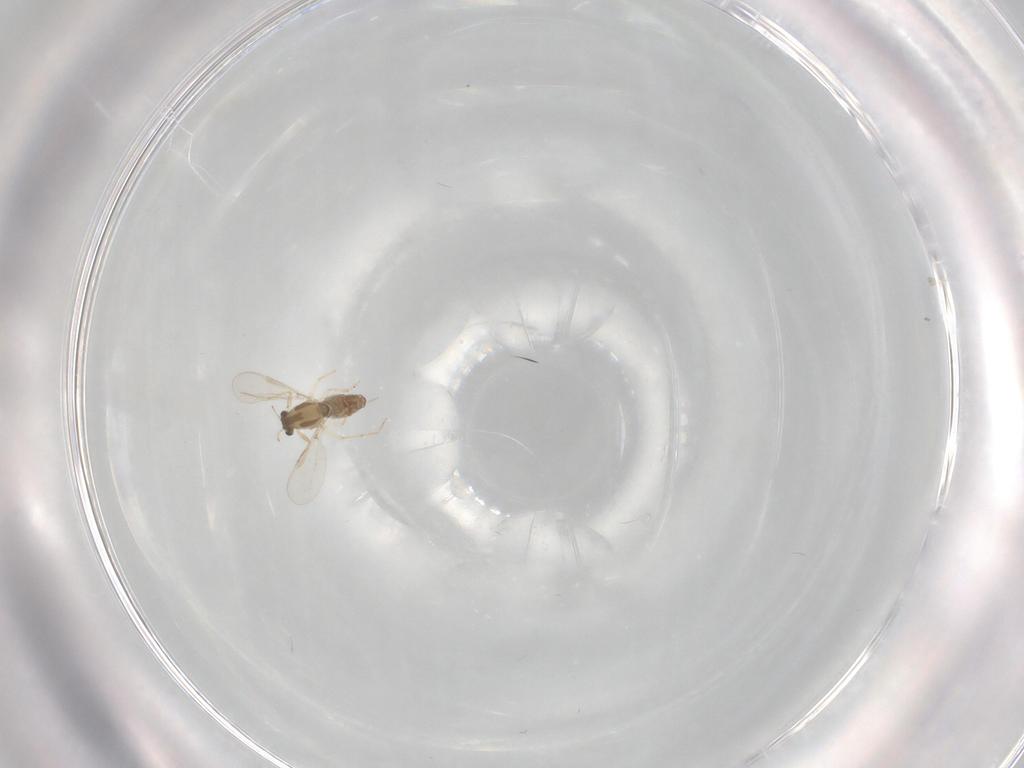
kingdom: Animalia
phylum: Arthropoda
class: Insecta
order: Diptera
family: Chironomidae
